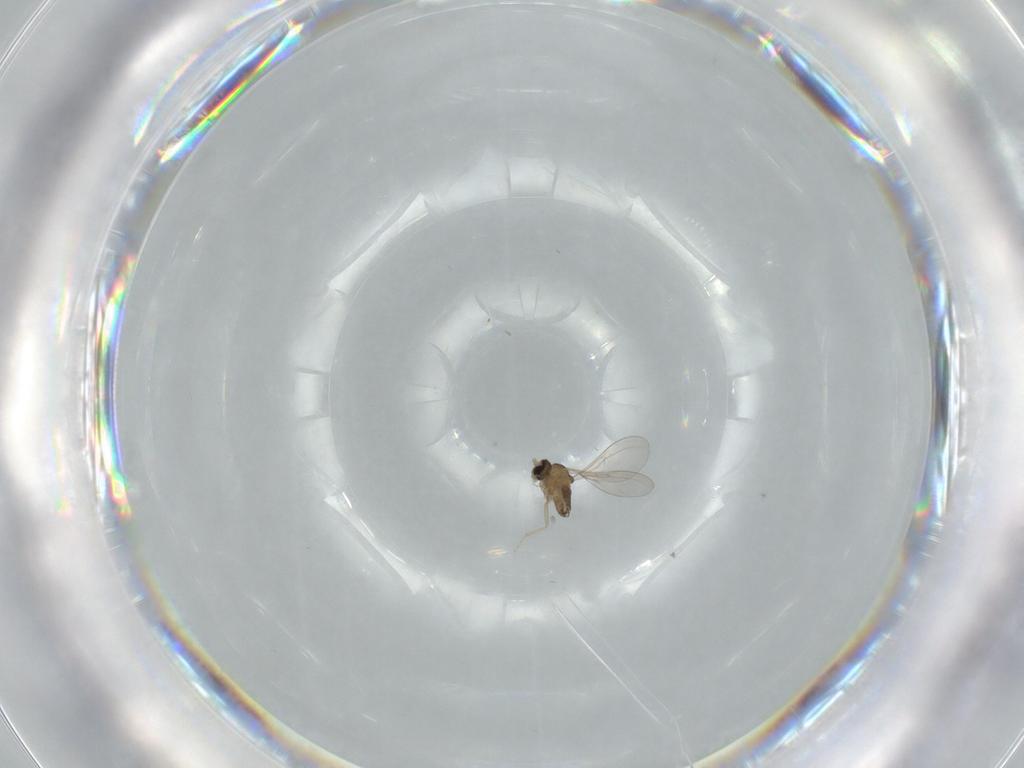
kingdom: Animalia
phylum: Arthropoda
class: Insecta
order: Diptera
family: Cecidomyiidae
